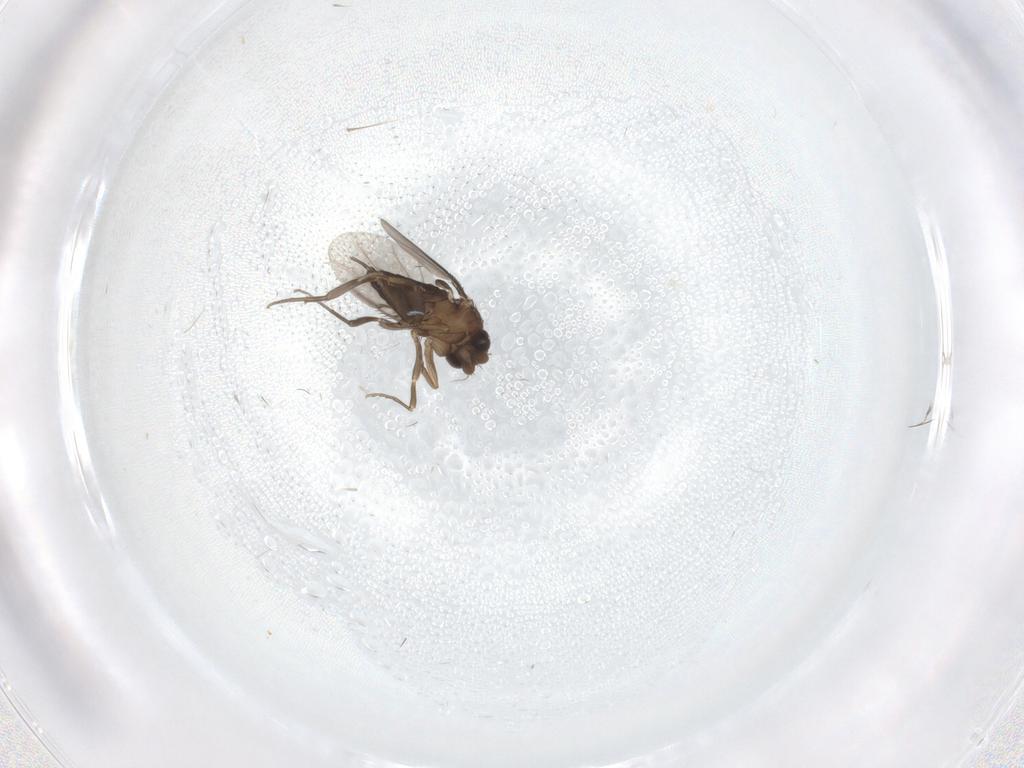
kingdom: Animalia
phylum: Arthropoda
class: Insecta
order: Diptera
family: Phoridae
